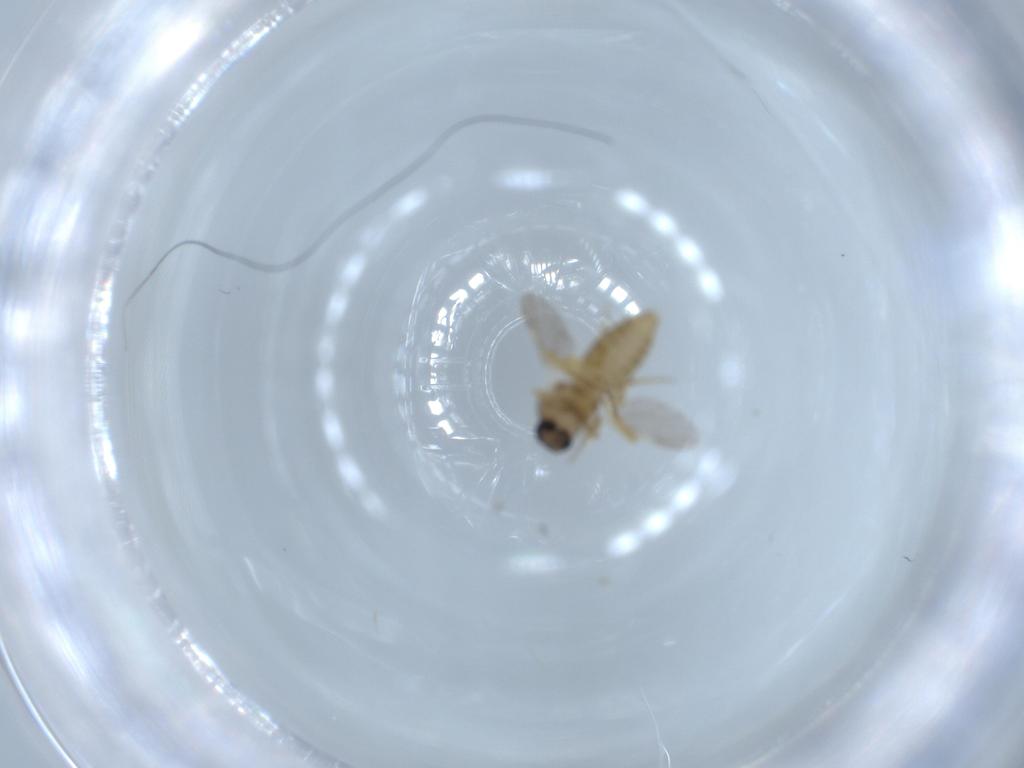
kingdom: Animalia
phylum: Arthropoda
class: Insecta
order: Diptera
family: Ceratopogonidae
